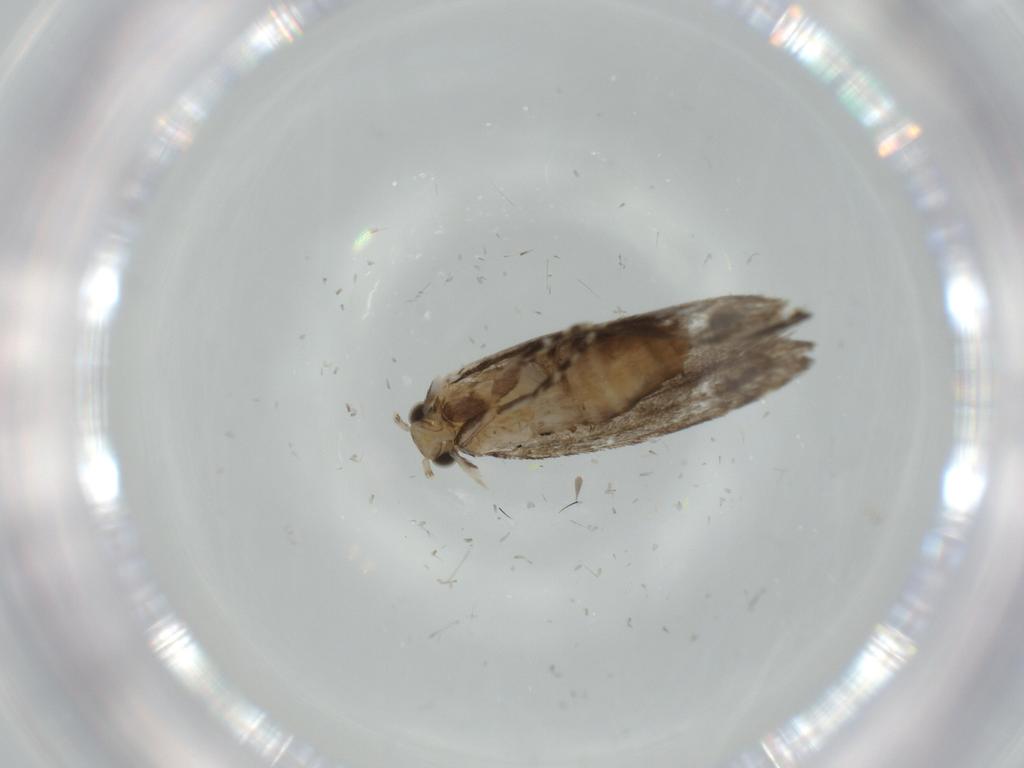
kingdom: Animalia
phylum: Arthropoda
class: Insecta
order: Lepidoptera
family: Tineidae
